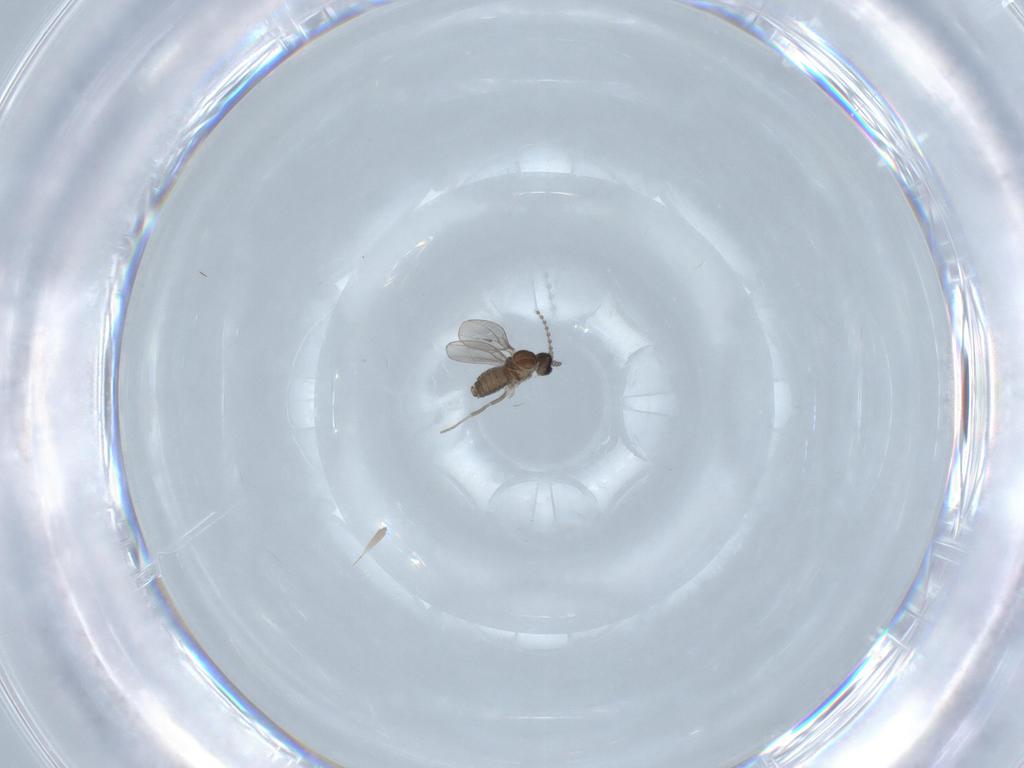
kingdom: Animalia
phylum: Arthropoda
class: Insecta
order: Diptera
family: Cecidomyiidae
